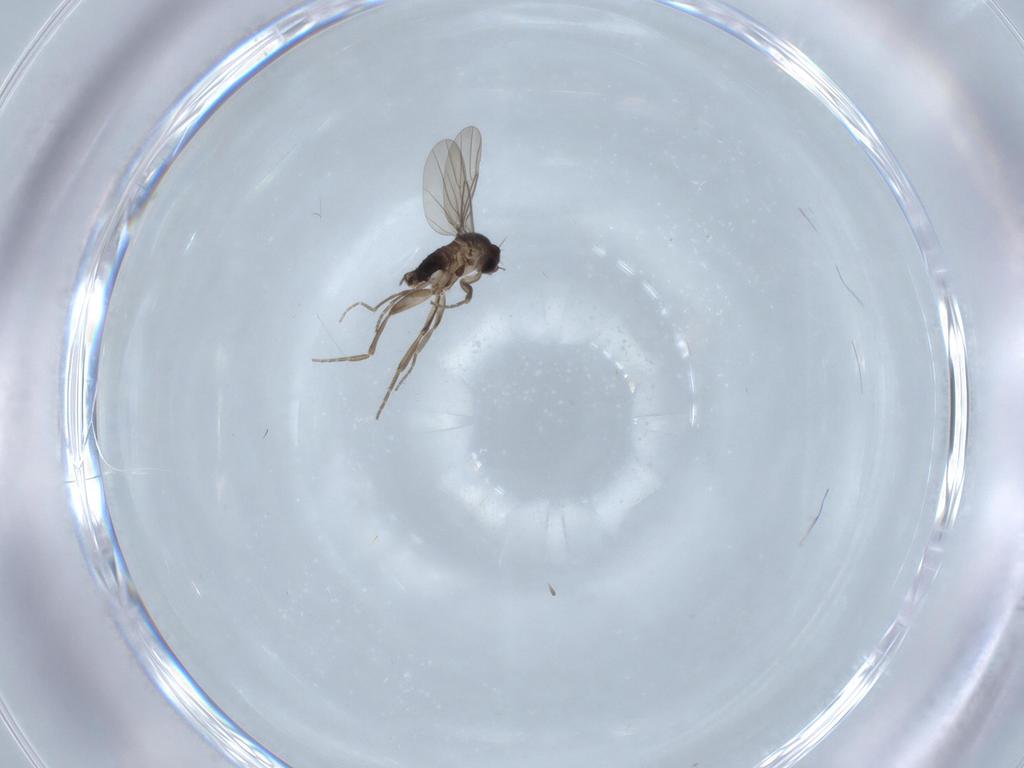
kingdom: Animalia
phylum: Arthropoda
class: Insecta
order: Diptera
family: Phoridae
